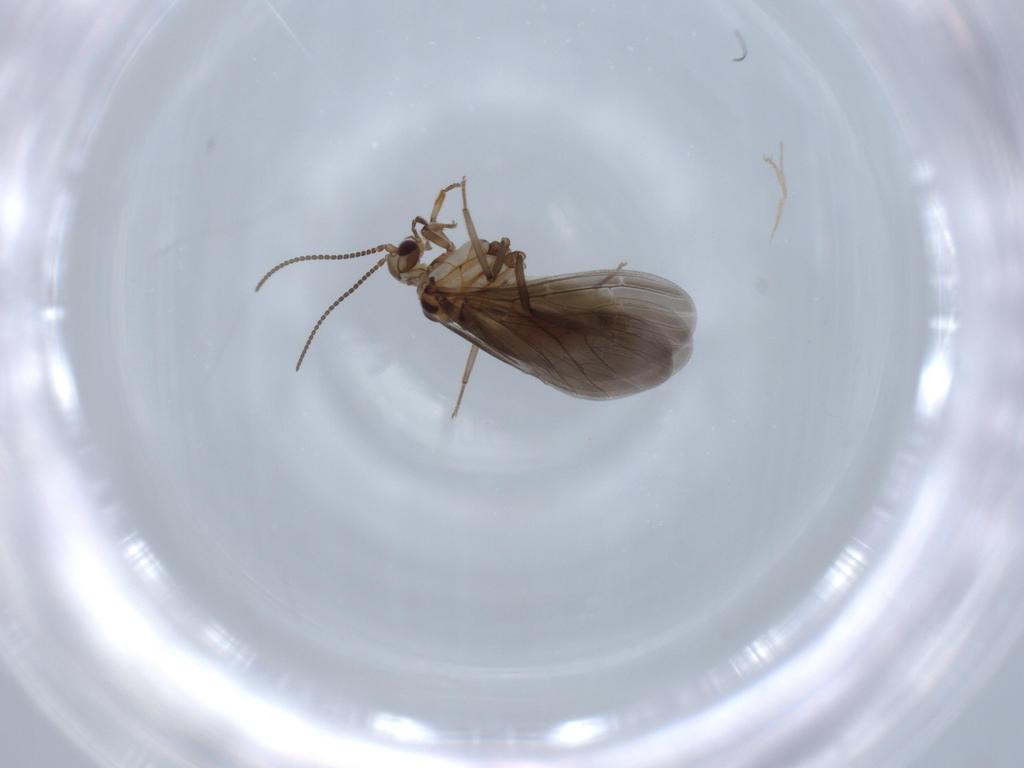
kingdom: Animalia
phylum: Arthropoda
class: Insecta
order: Neuroptera
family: Coniopterygidae
